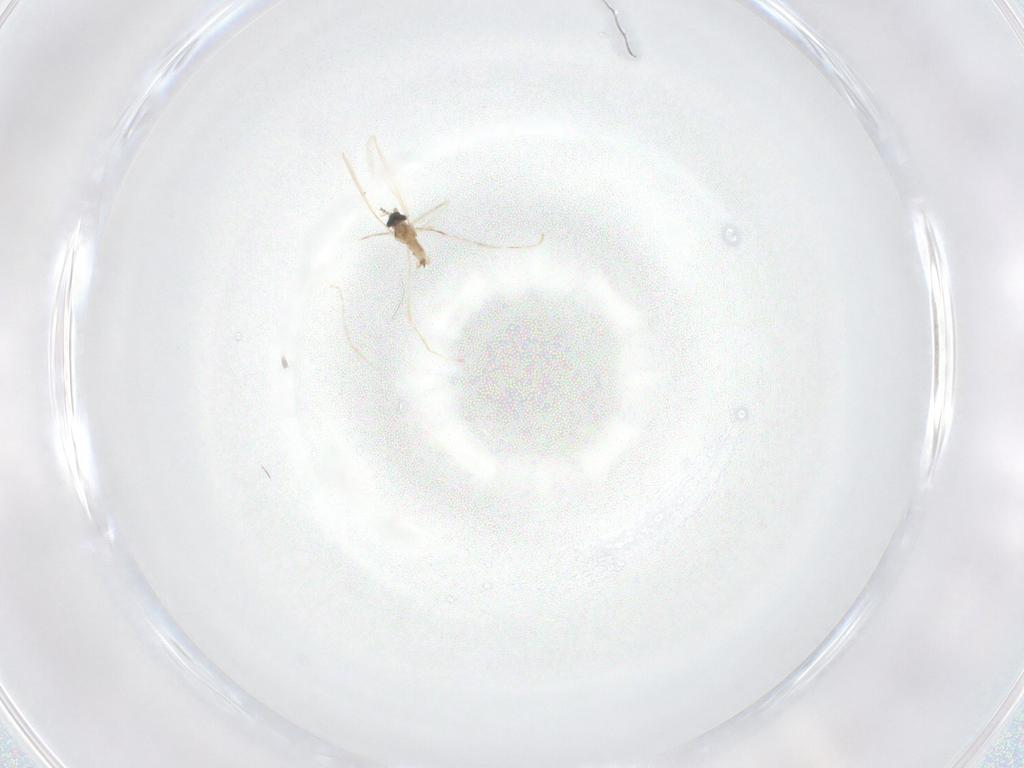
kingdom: Animalia
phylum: Arthropoda
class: Insecta
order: Diptera
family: Cecidomyiidae
